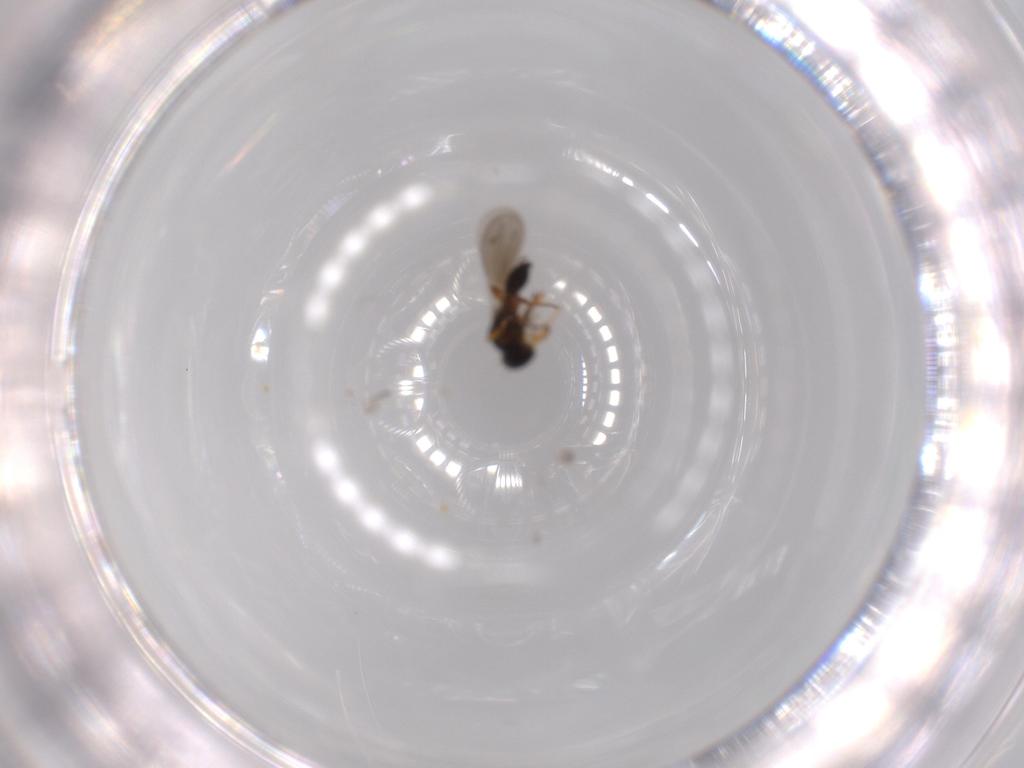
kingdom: Animalia
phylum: Arthropoda
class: Insecta
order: Hymenoptera
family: Platygastridae
